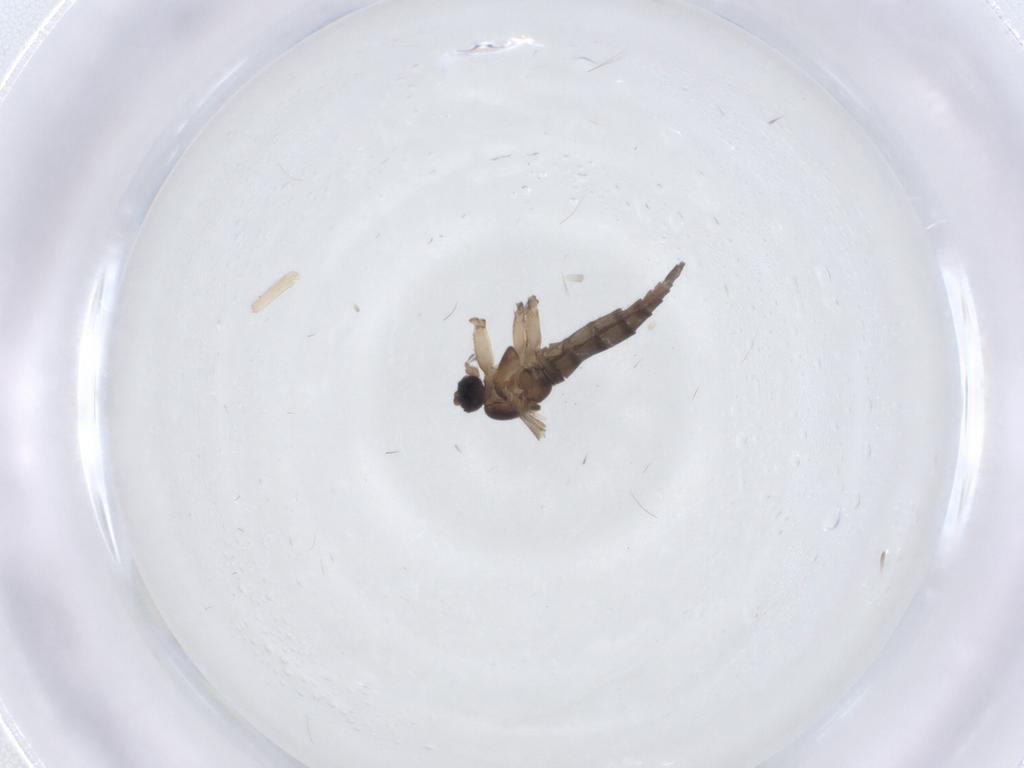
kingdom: Animalia
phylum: Arthropoda
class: Insecta
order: Diptera
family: Sciaridae
